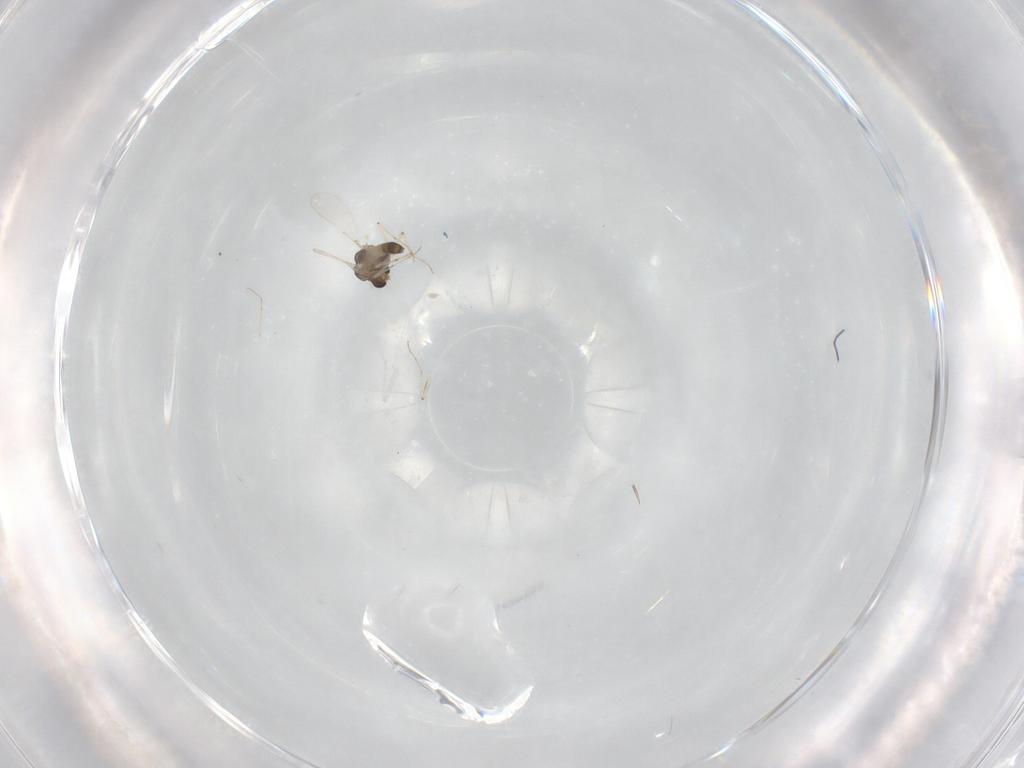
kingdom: Animalia
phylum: Arthropoda
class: Insecta
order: Diptera
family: Chironomidae
